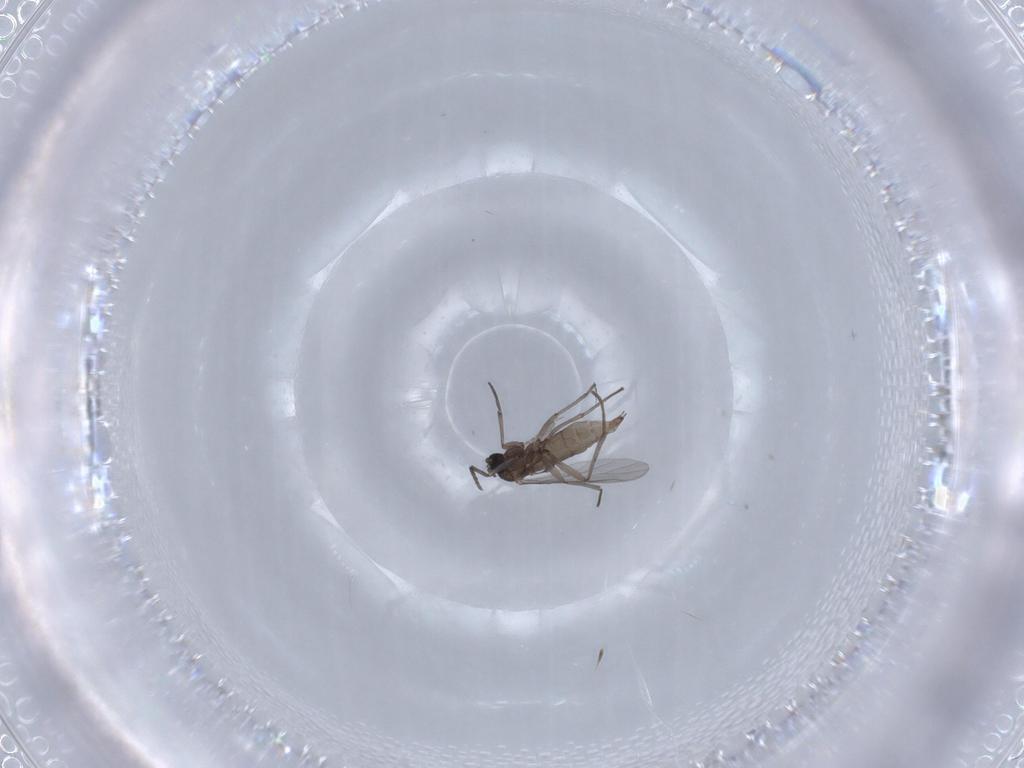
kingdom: Animalia
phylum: Arthropoda
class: Insecta
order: Diptera
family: Sciaridae
